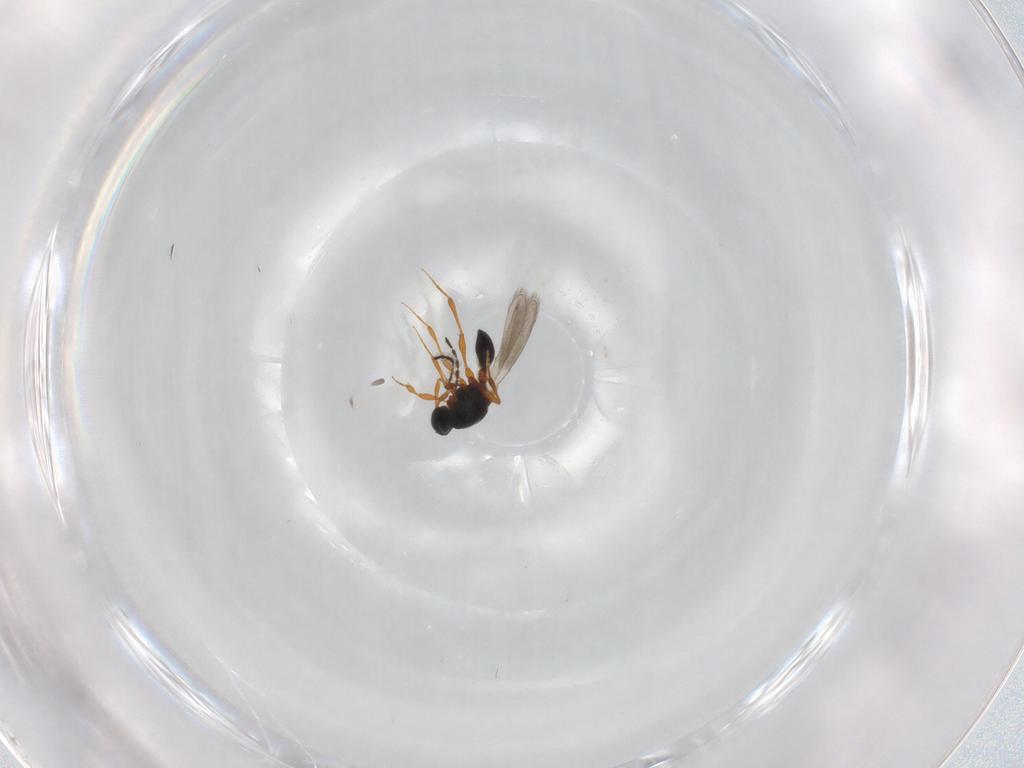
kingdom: Animalia
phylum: Arthropoda
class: Insecta
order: Hymenoptera
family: Platygastridae
